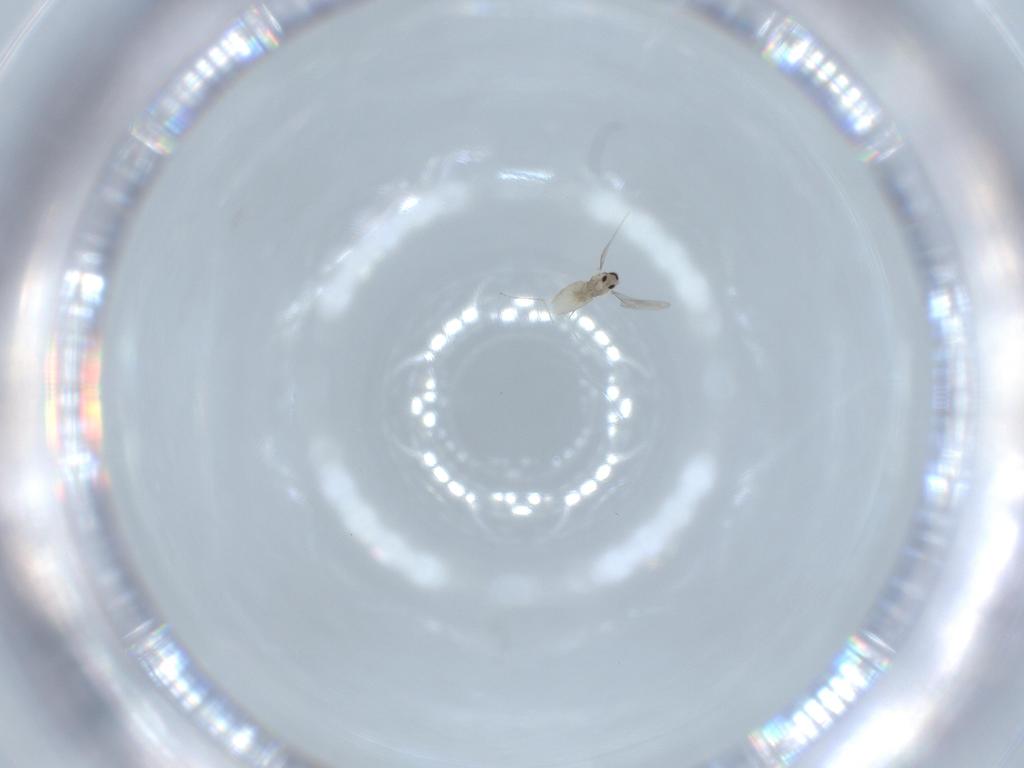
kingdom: Animalia
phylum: Arthropoda
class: Insecta
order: Diptera
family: Cecidomyiidae
